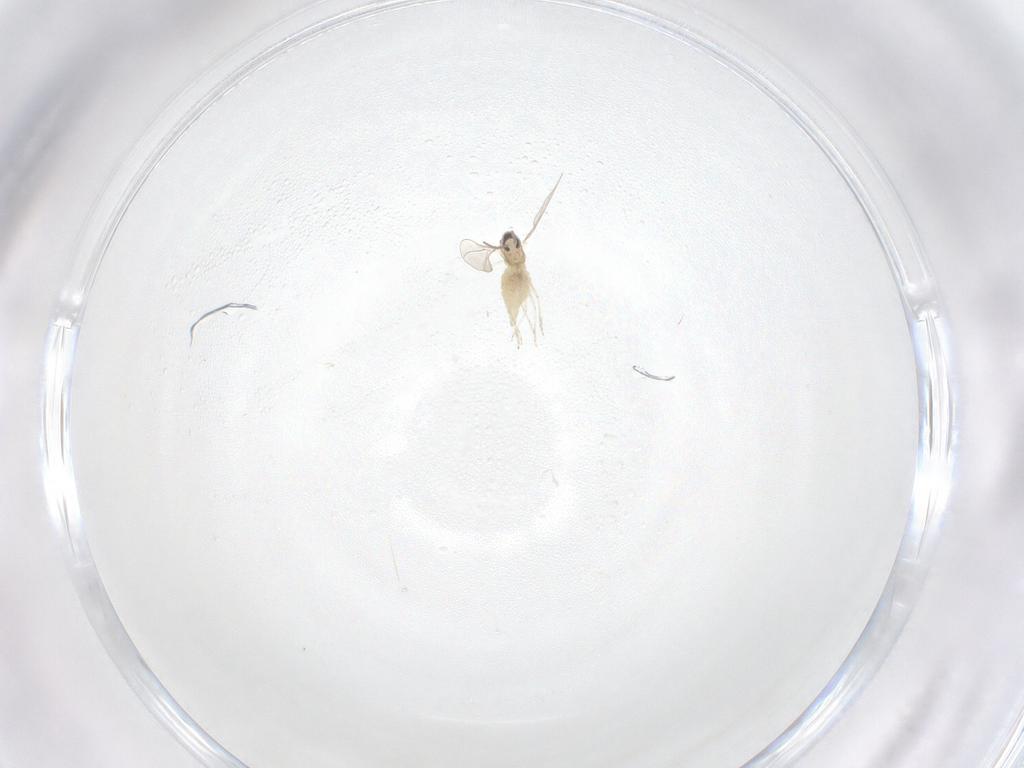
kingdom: Animalia
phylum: Arthropoda
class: Insecta
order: Diptera
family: Cecidomyiidae
